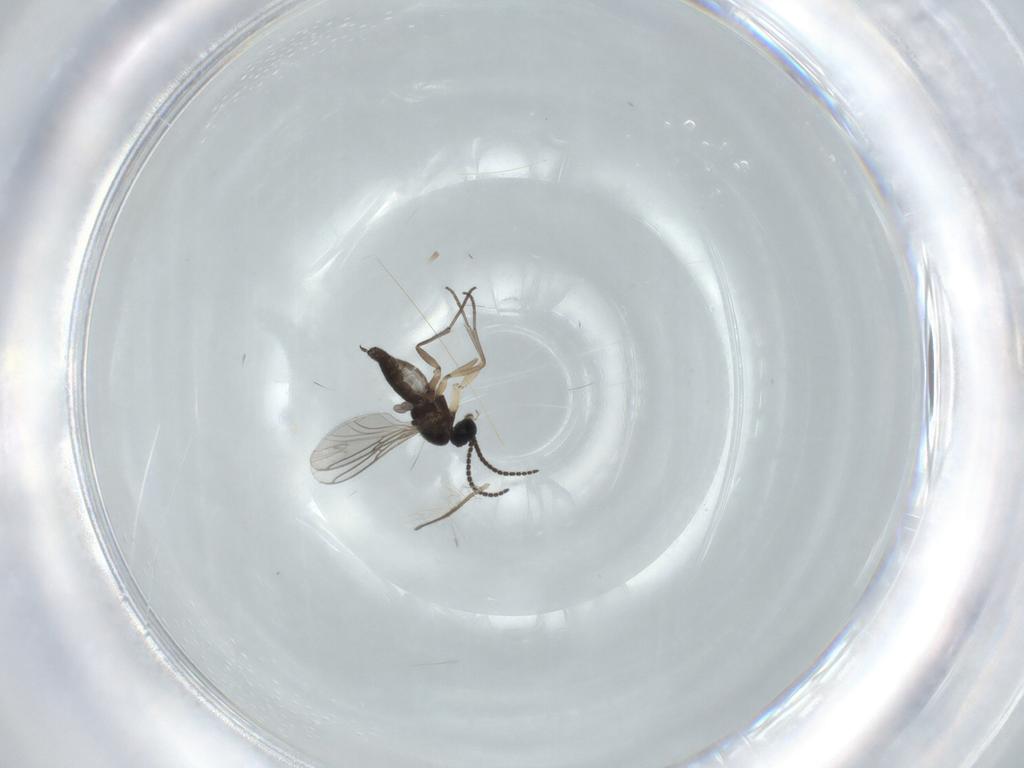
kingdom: Animalia
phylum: Arthropoda
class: Insecta
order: Diptera
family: Sciaridae
